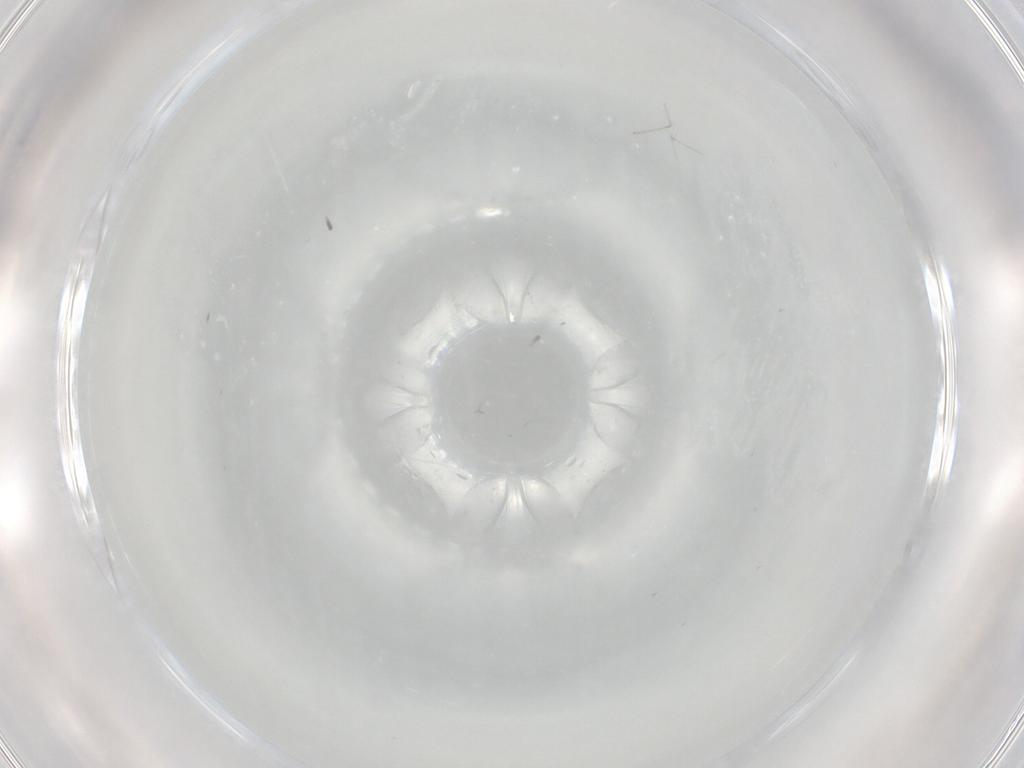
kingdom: Animalia
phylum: Arthropoda
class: Insecta
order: Diptera
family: Cecidomyiidae
